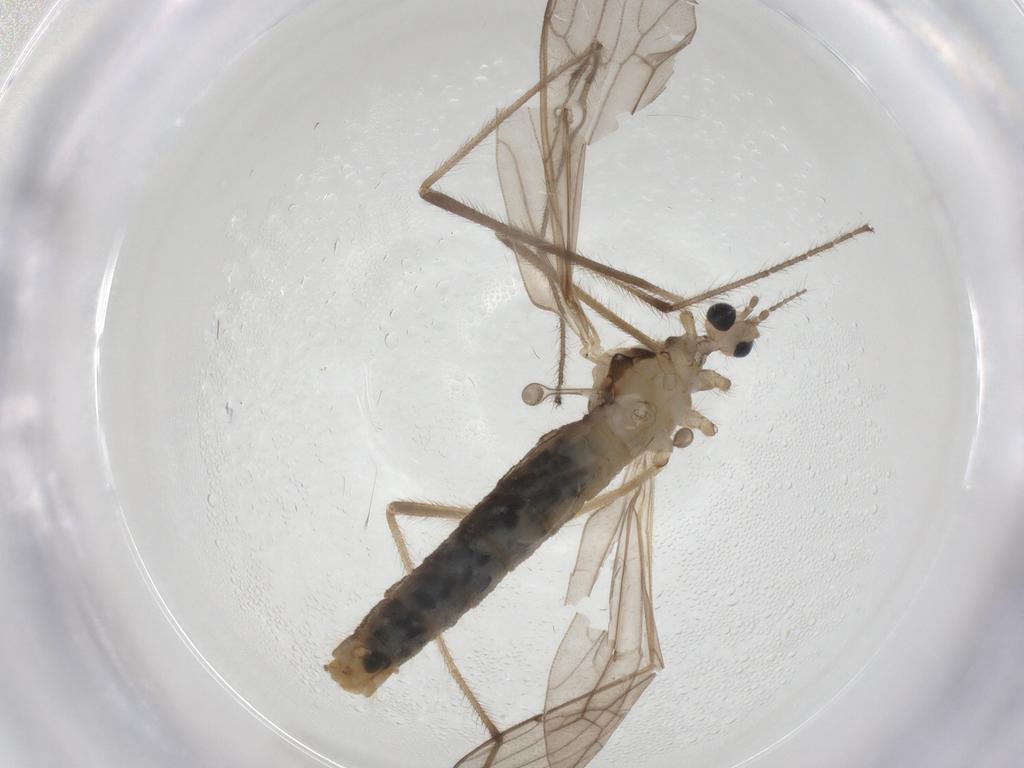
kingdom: Animalia
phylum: Arthropoda
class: Insecta
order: Diptera
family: Limoniidae
